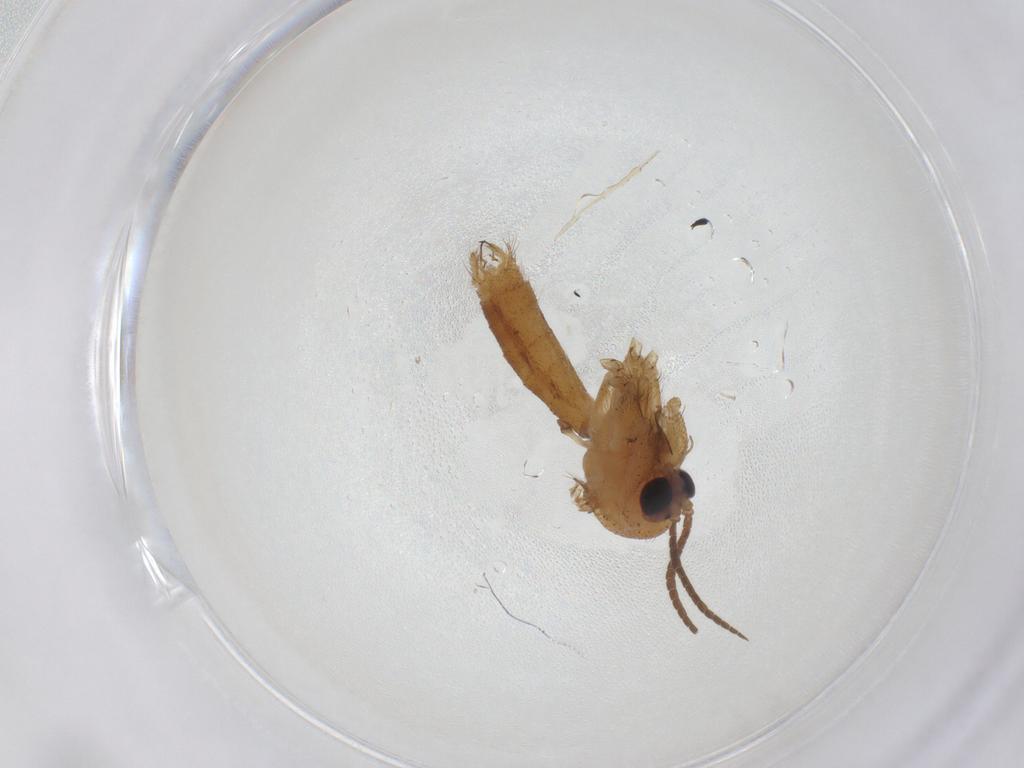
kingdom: Animalia
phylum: Arthropoda
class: Insecta
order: Diptera
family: Mycetophilidae
